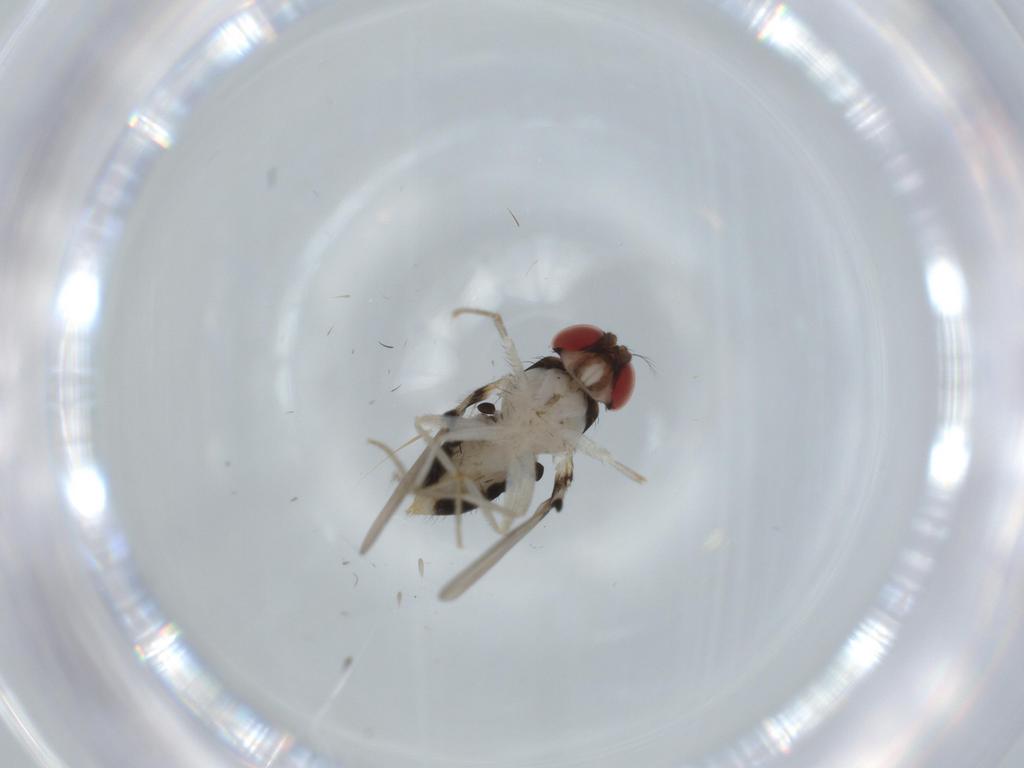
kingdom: Animalia
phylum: Arthropoda
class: Insecta
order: Diptera
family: Drosophilidae
